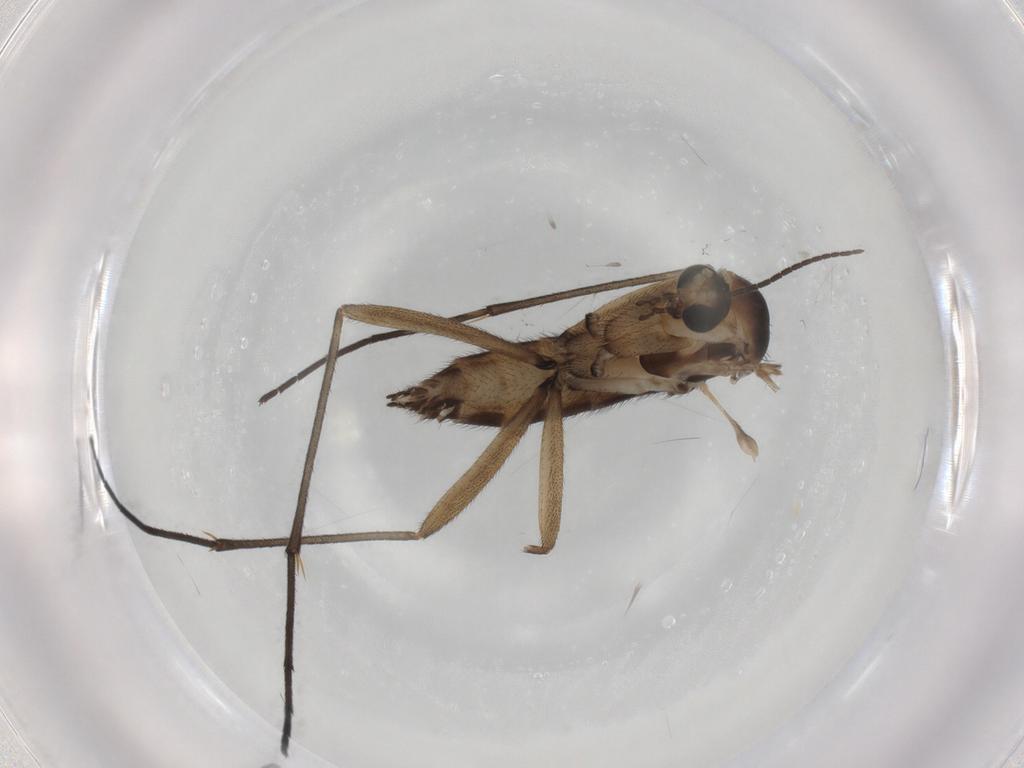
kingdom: Animalia
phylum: Arthropoda
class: Insecta
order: Diptera
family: Sciaridae
